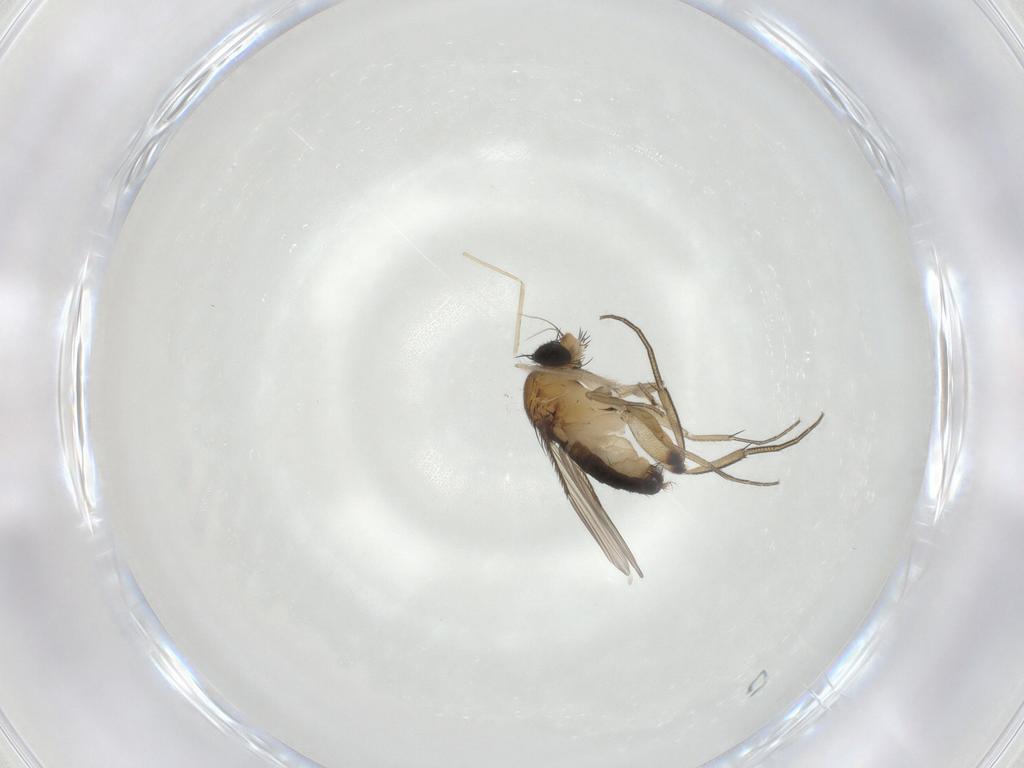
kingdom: Animalia
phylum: Arthropoda
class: Insecta
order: Diptera
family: Phoridae
